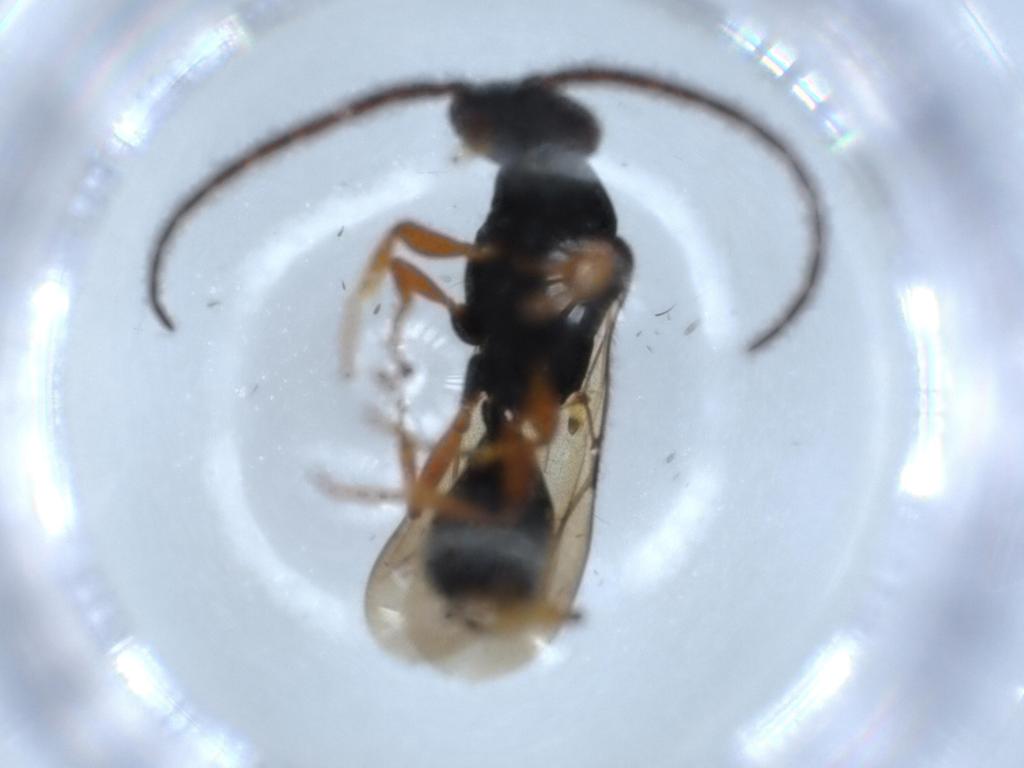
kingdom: Animalia
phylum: Arthropoda
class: Insecta
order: Hymenoptera
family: Bethylidae
